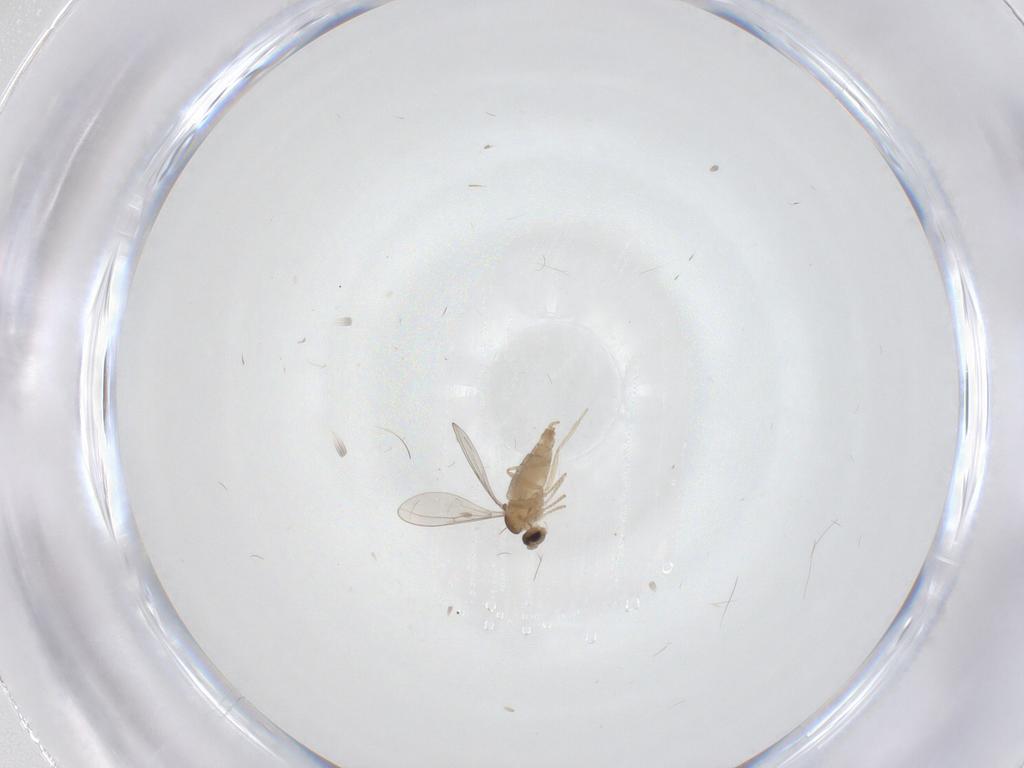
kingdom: Animalia
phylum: Arthropoda
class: Insecta
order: Diptera
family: Cecidomyiidae
